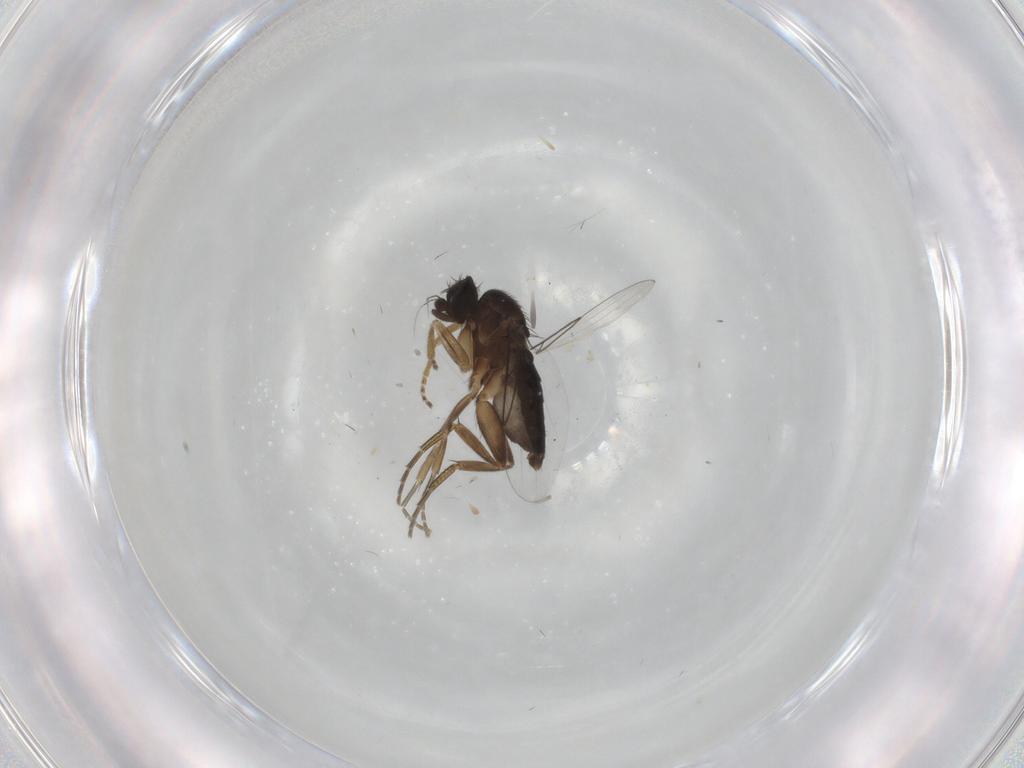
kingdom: Animalia
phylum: Arthropoda
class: Insecta
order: Diptera
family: Phoridae
